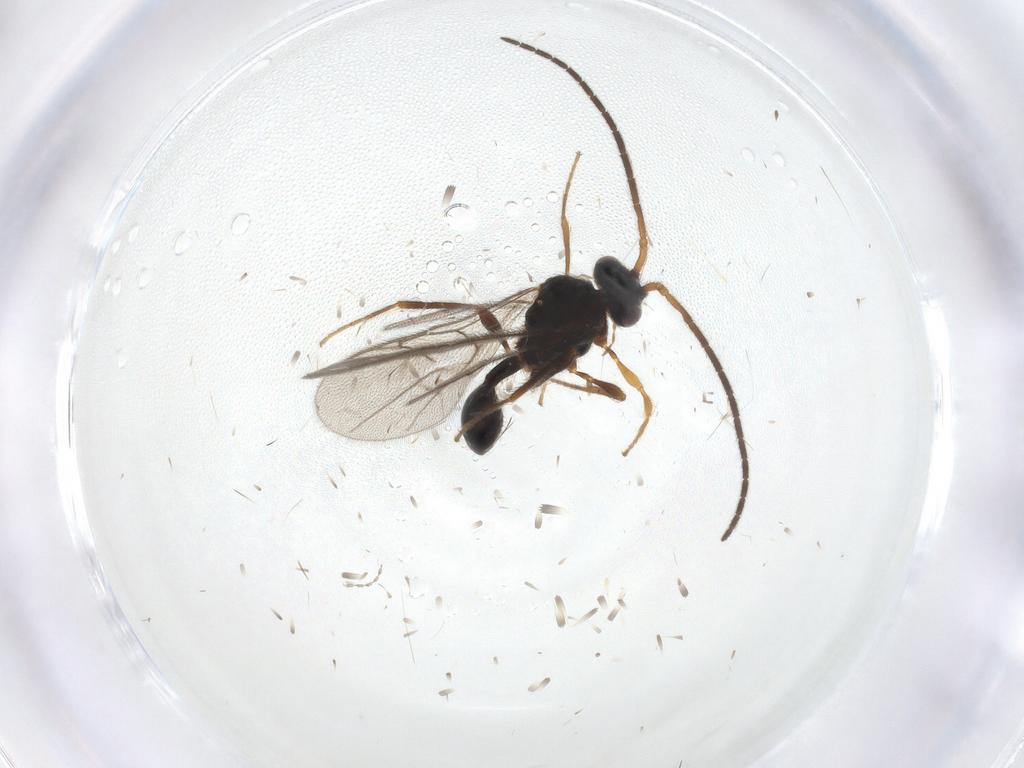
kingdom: Animalia
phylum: Arthropoda
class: Insecta
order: Hymenoptera
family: Diapriidae
